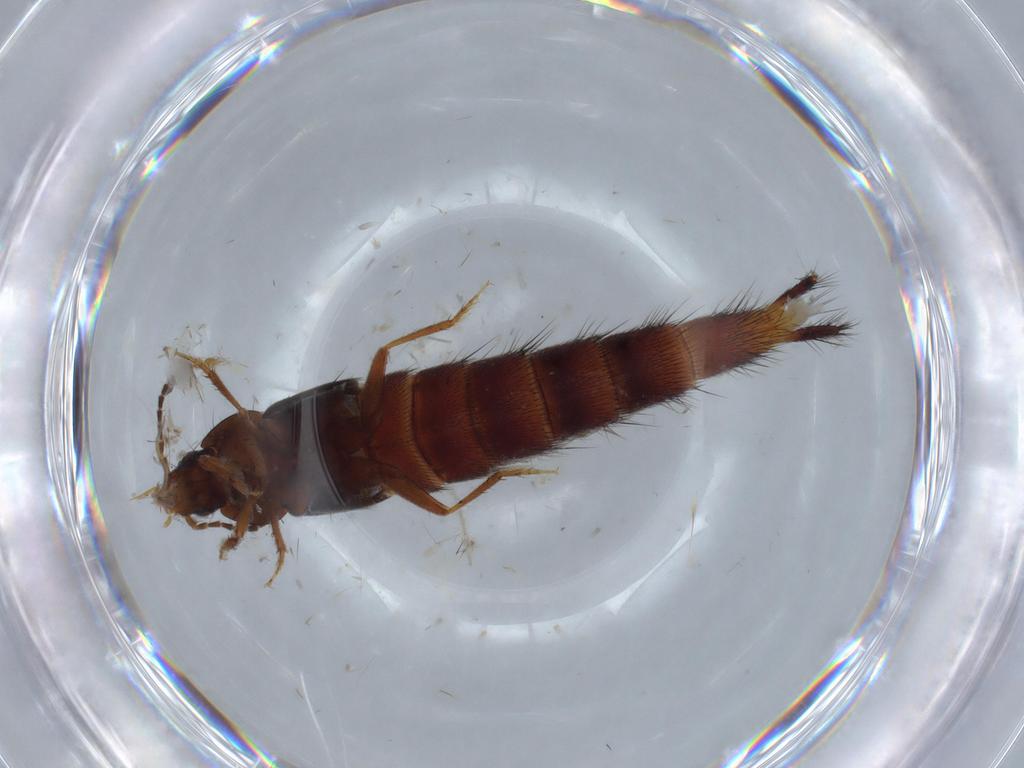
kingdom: Animalia
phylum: Arthropoda
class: Insecta
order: Coleoptera
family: Staphylinidae
